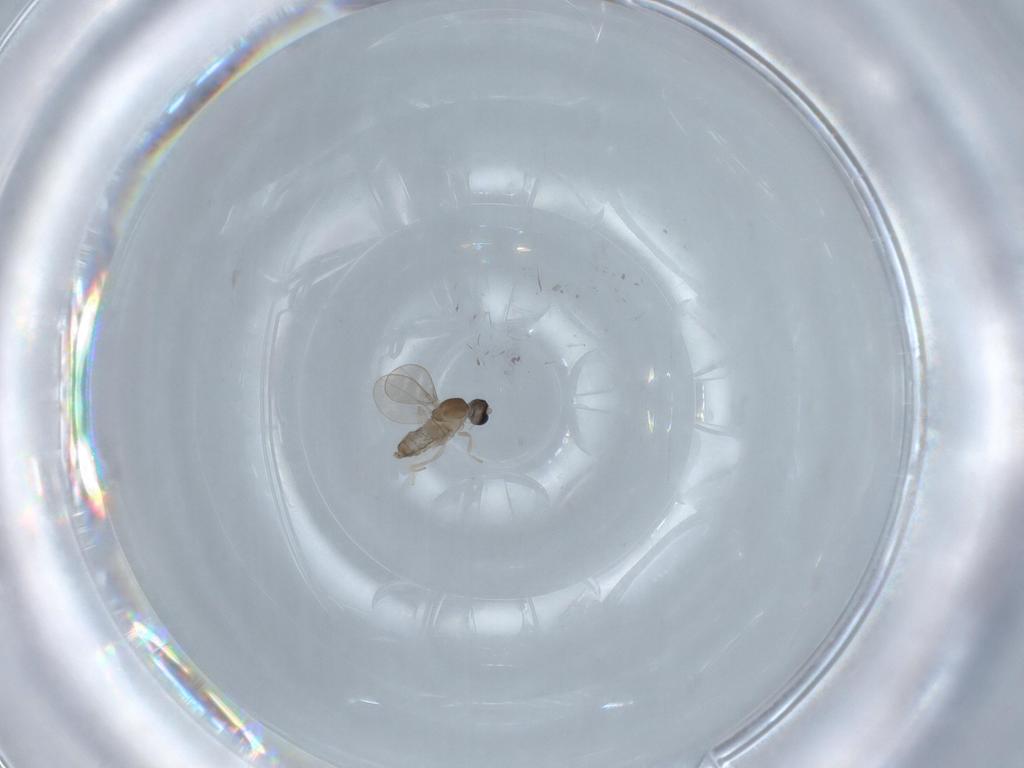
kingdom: Animalia
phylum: Arthropoda
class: Insecta
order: Diptera
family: Cecidomyiidae
